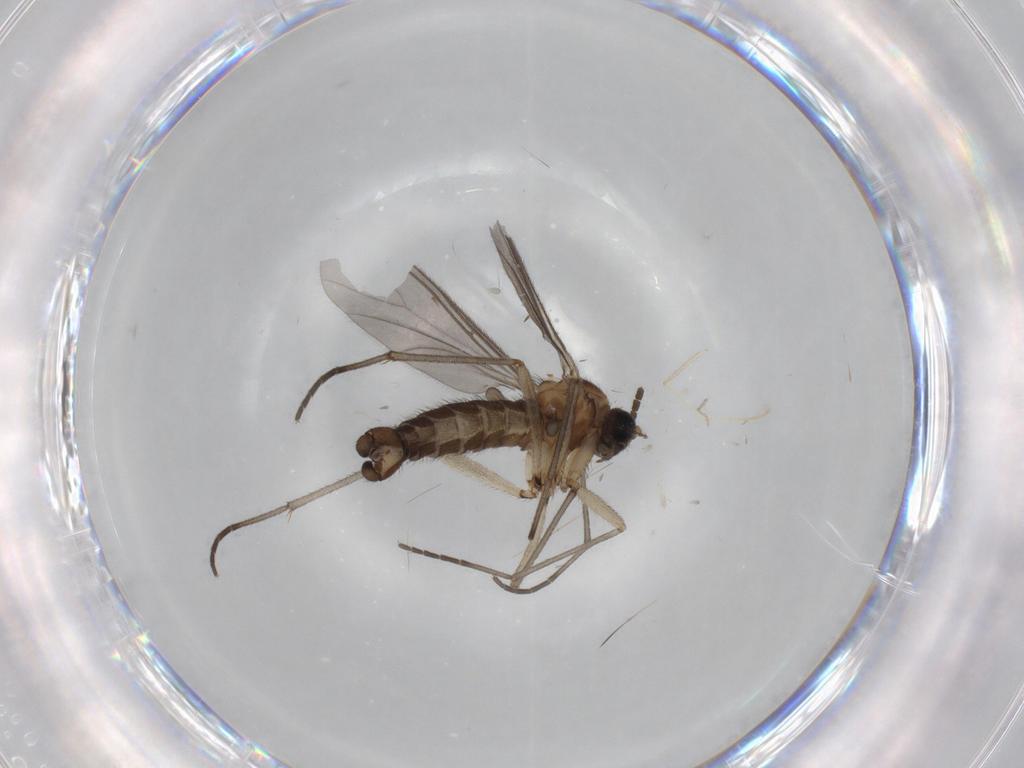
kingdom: Animalia
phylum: Arthropoda
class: Insecta
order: Diptera
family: Sciaridae
